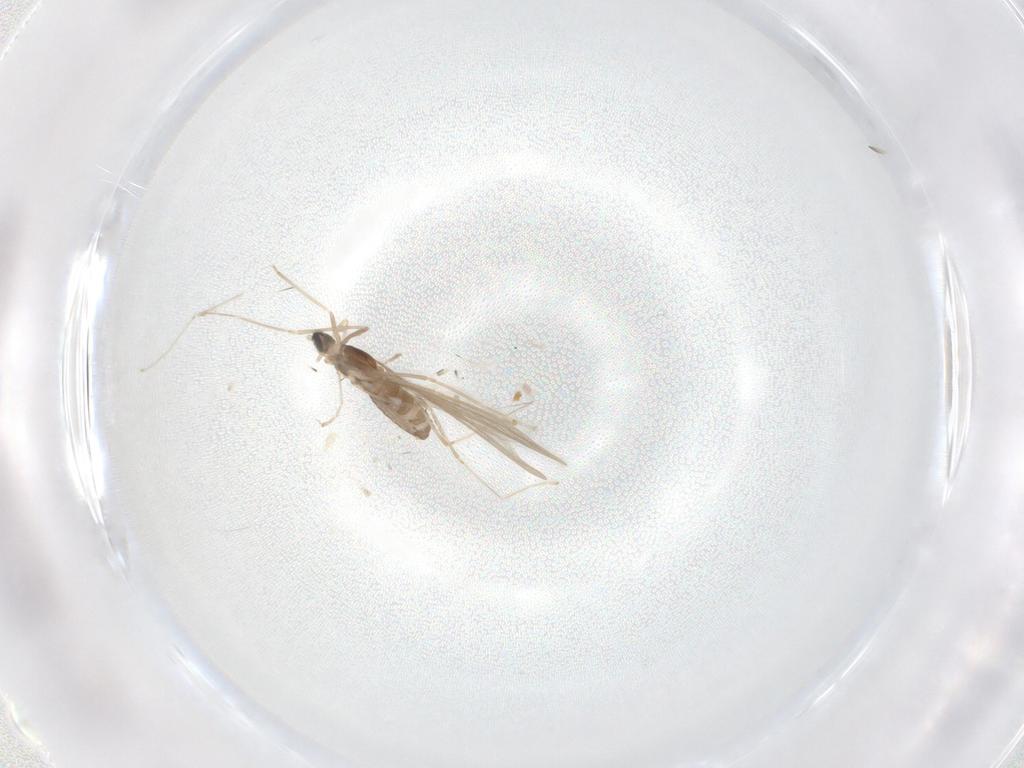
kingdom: Animalia
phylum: Arthropoda
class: Insecta
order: Diptera
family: Cecidomyiidae
